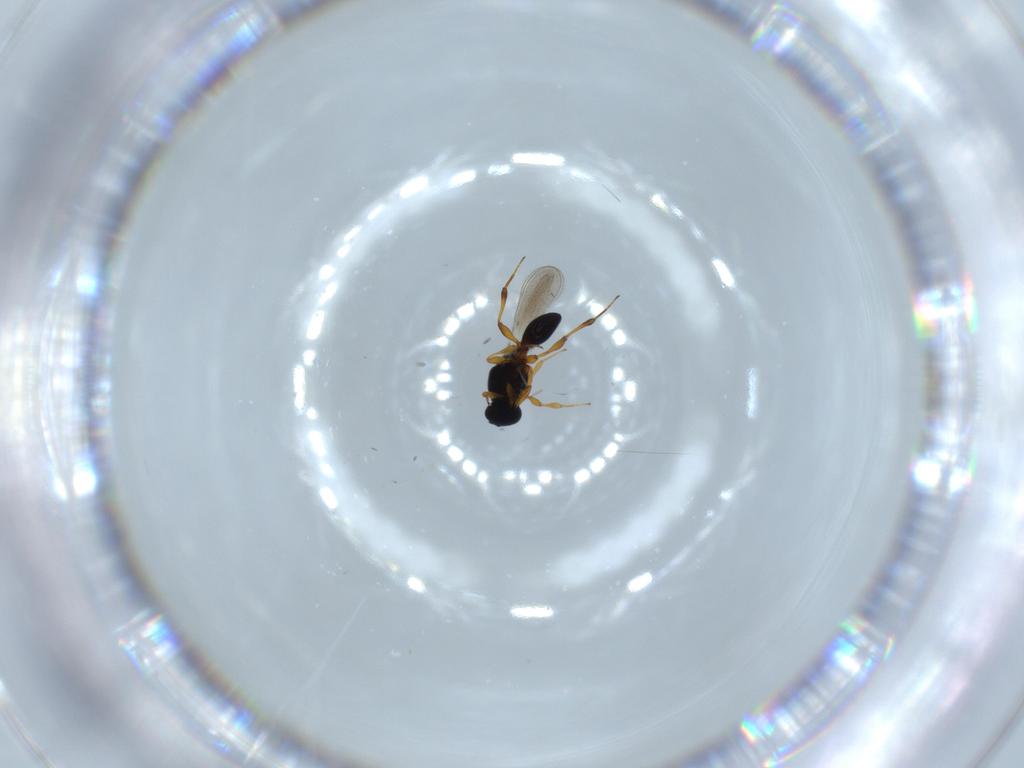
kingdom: Animalia
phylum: Arthropoda
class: Insecta
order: Hymenoptera
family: Platygastridae
